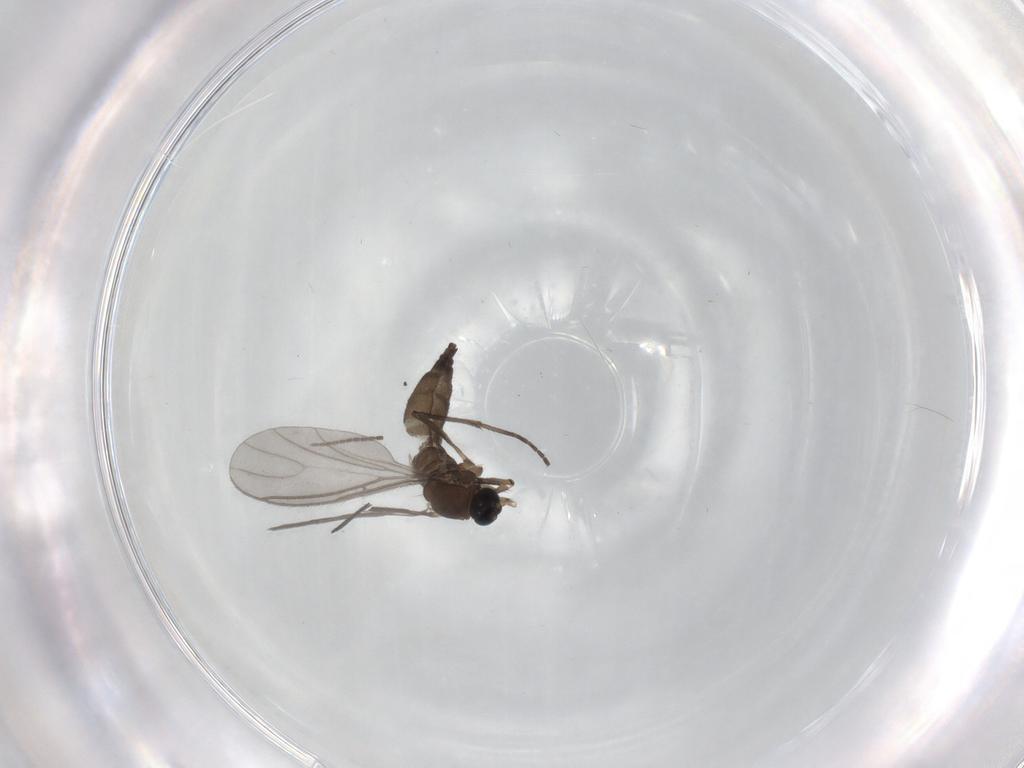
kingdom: Animalia
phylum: Arthropoda
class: Insecta
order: Diptera
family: Sciaridae
